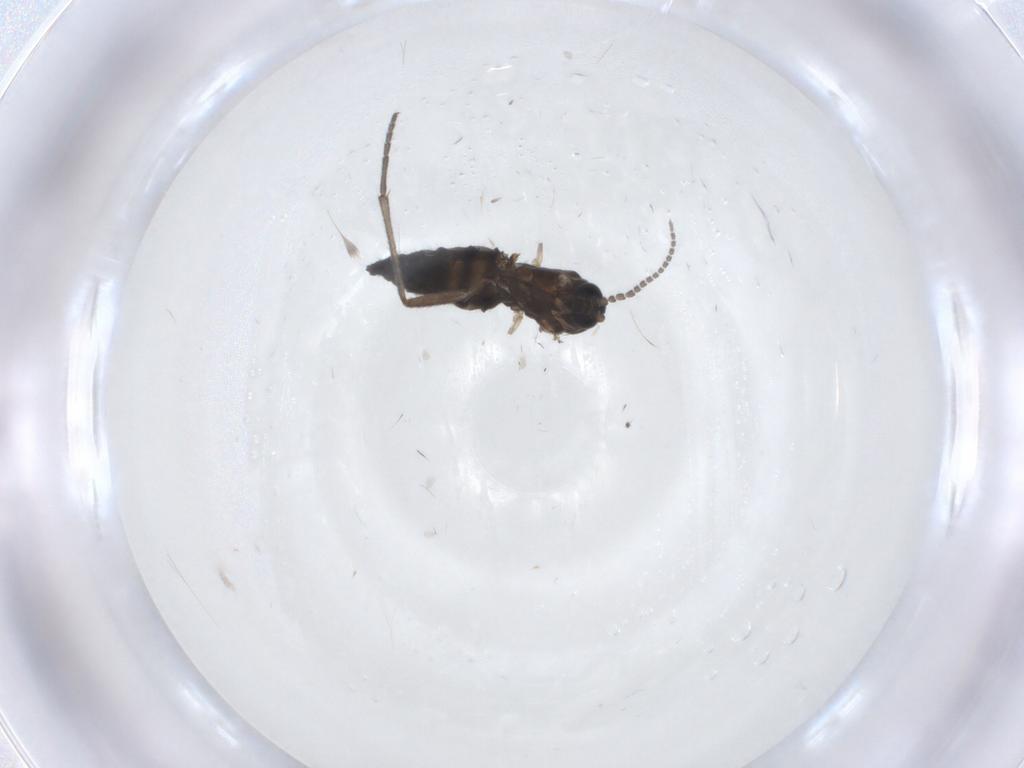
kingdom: Animalia
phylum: Arthropoda
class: Insecta
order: Diptera
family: Sciaridae
